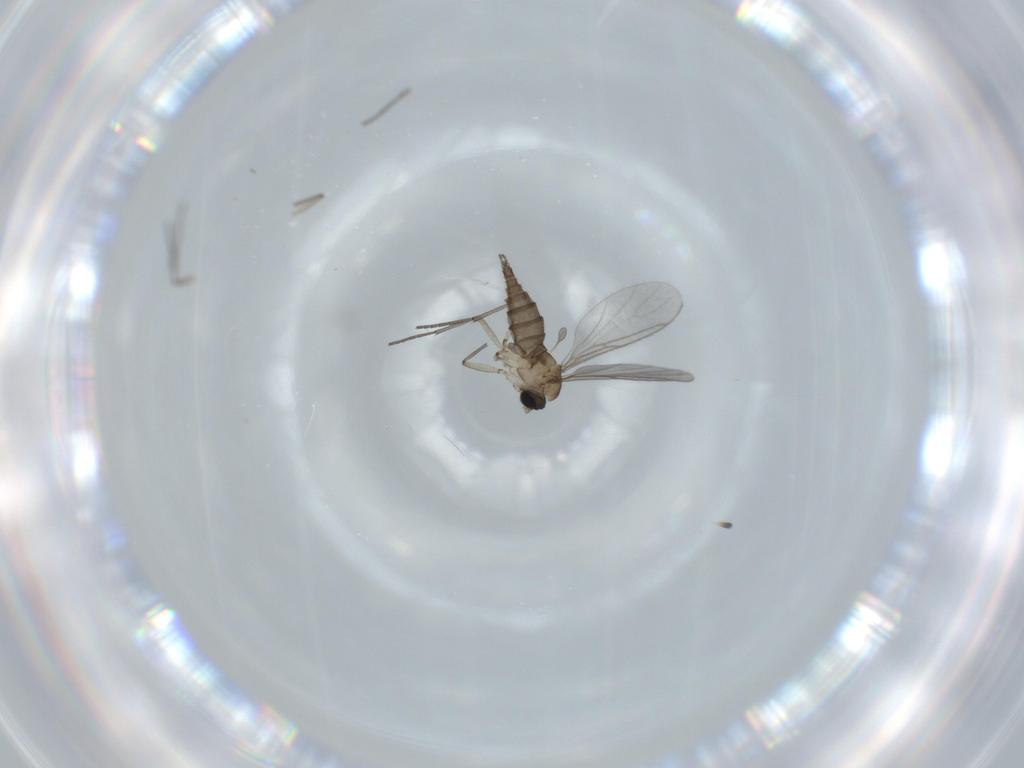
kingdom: Animalia
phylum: Arthropoda
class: Insecta
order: Diptera
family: Sciaridae
